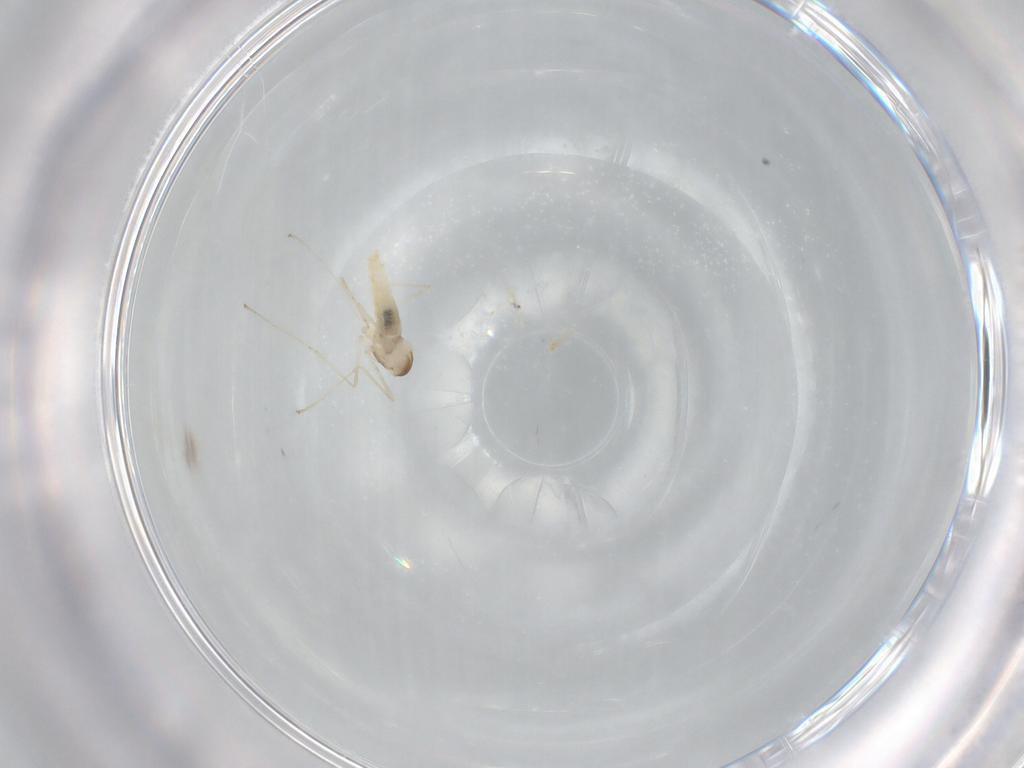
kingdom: Animalia
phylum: Arthropoda
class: Insecta
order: Diptera
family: Cecidomyiidae
